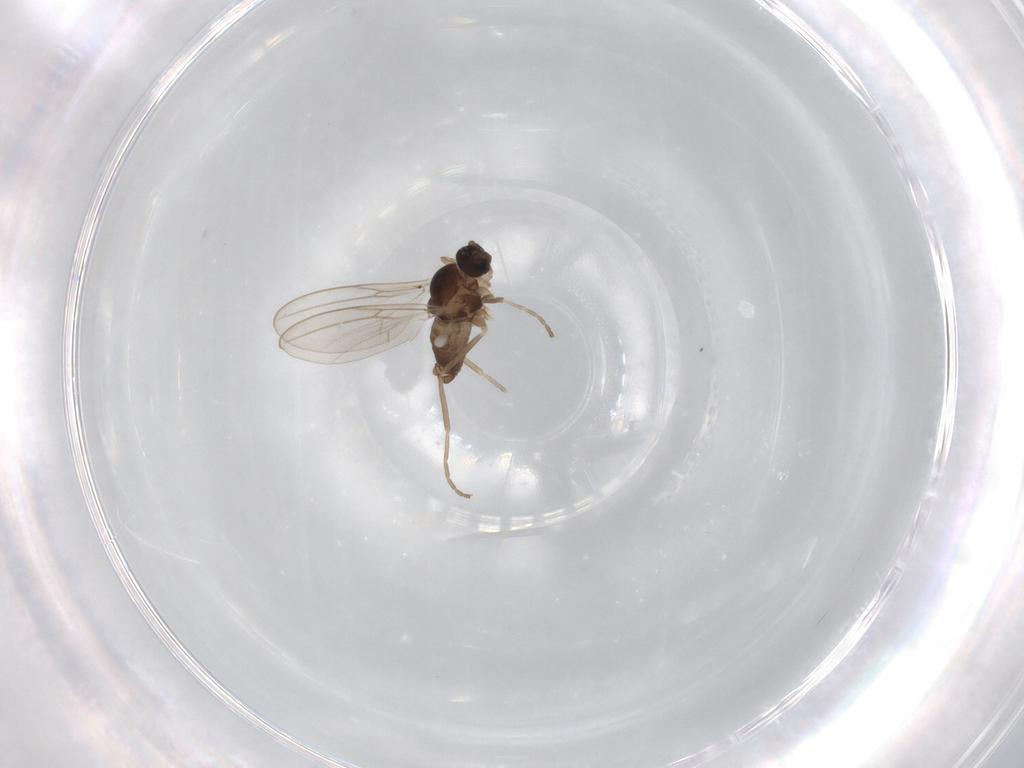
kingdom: Animalia
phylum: Arthropoda
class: Insecta
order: Diptera
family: Cecidomyiidae
